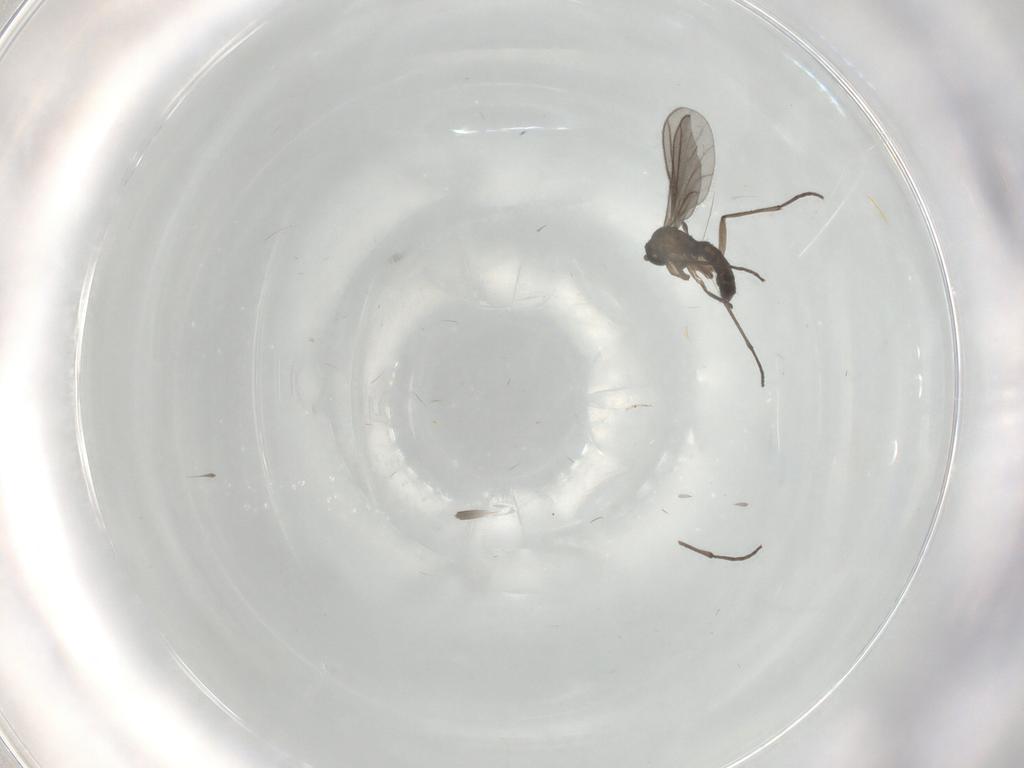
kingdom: Animalia
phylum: Arthropoda
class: Insecta
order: Diptera
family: Sciaridae
